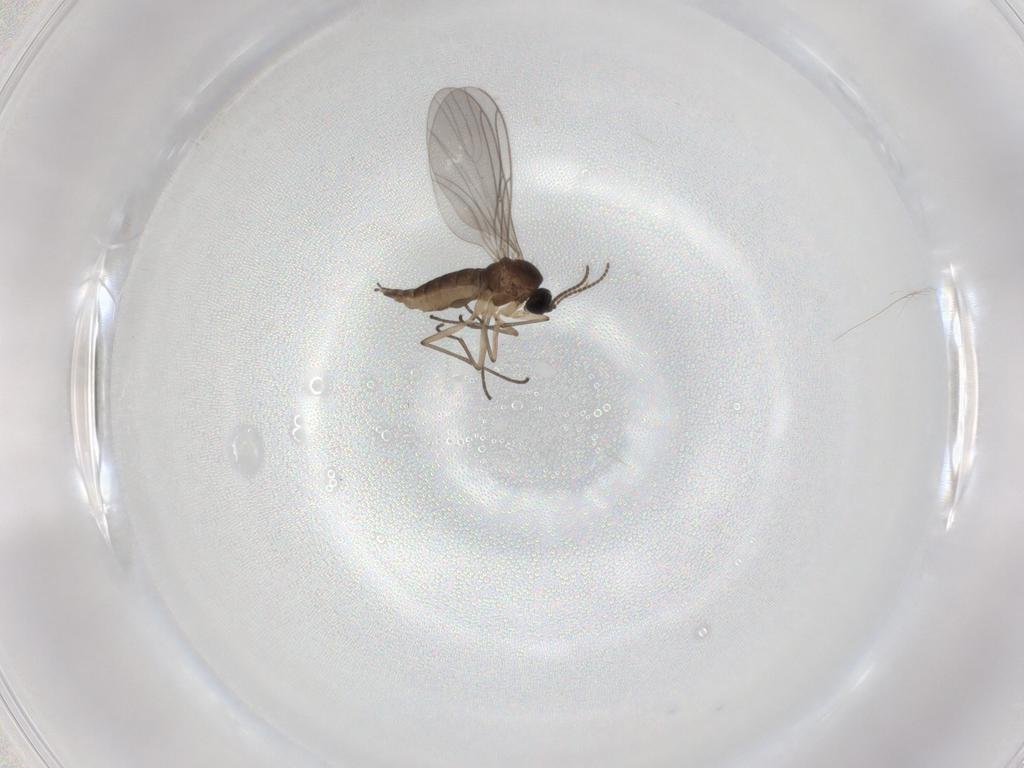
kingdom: Animalia
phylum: Arthropoda
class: Insecta
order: Diptera
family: Sciaridae
